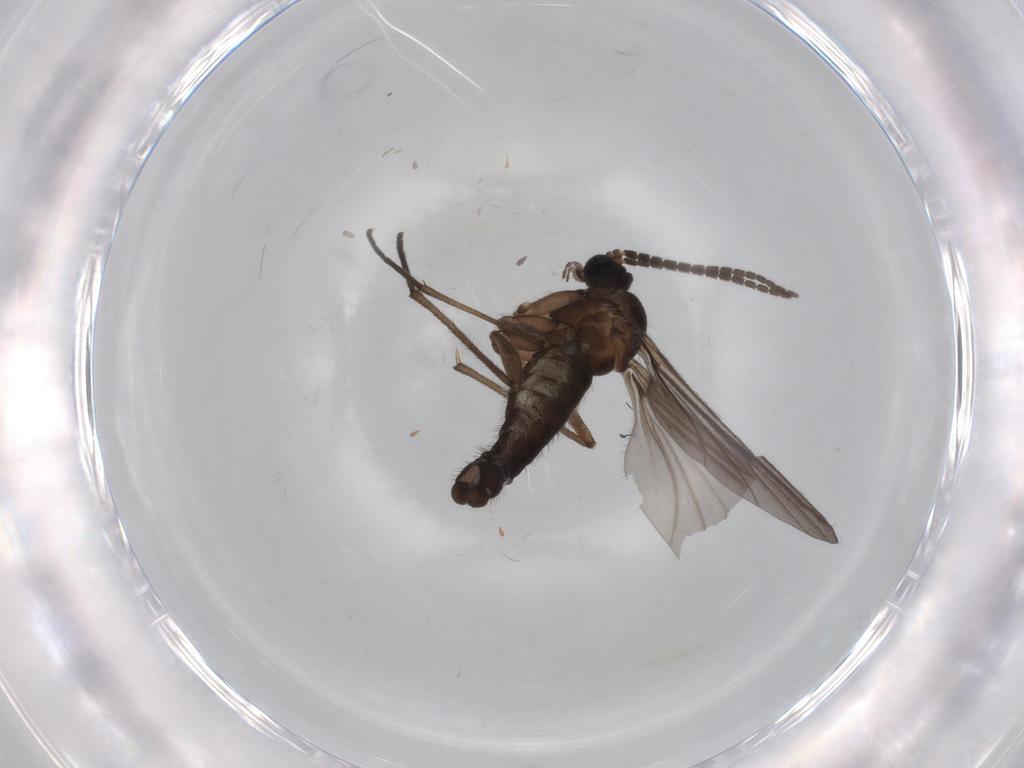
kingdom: Animalia
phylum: Arthropoda
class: Insecta
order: Diptera
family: Sciaridae
